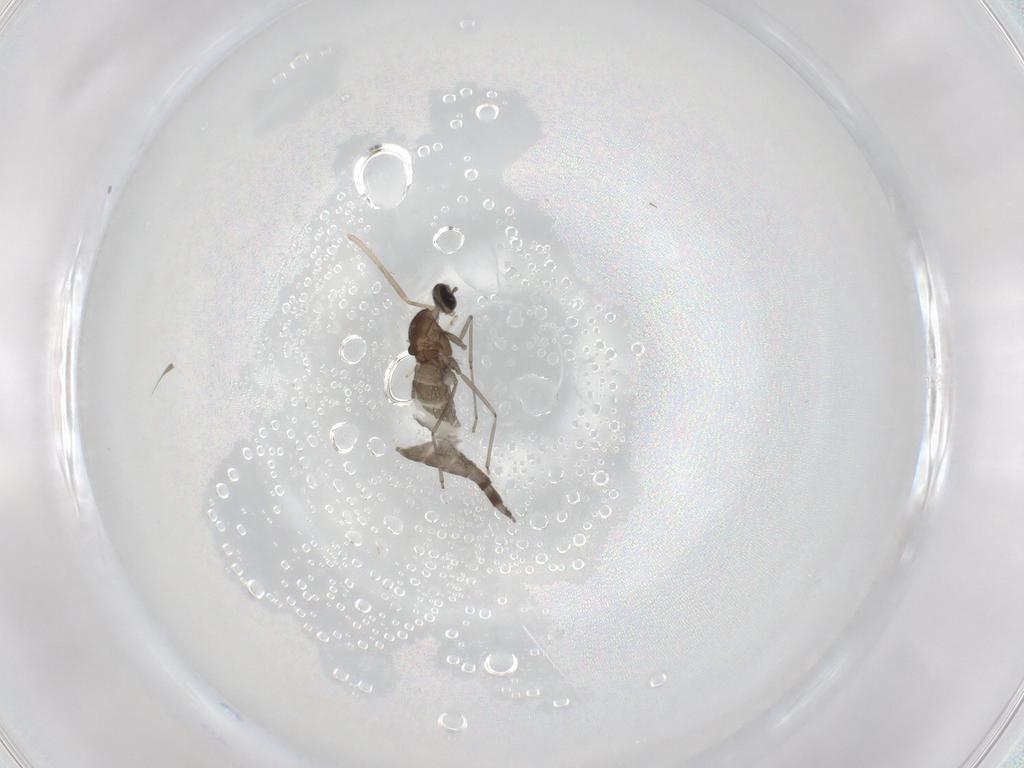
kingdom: Animalia
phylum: Arthropoda
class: Insecta
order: Diptera
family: Cecidomyiidae
